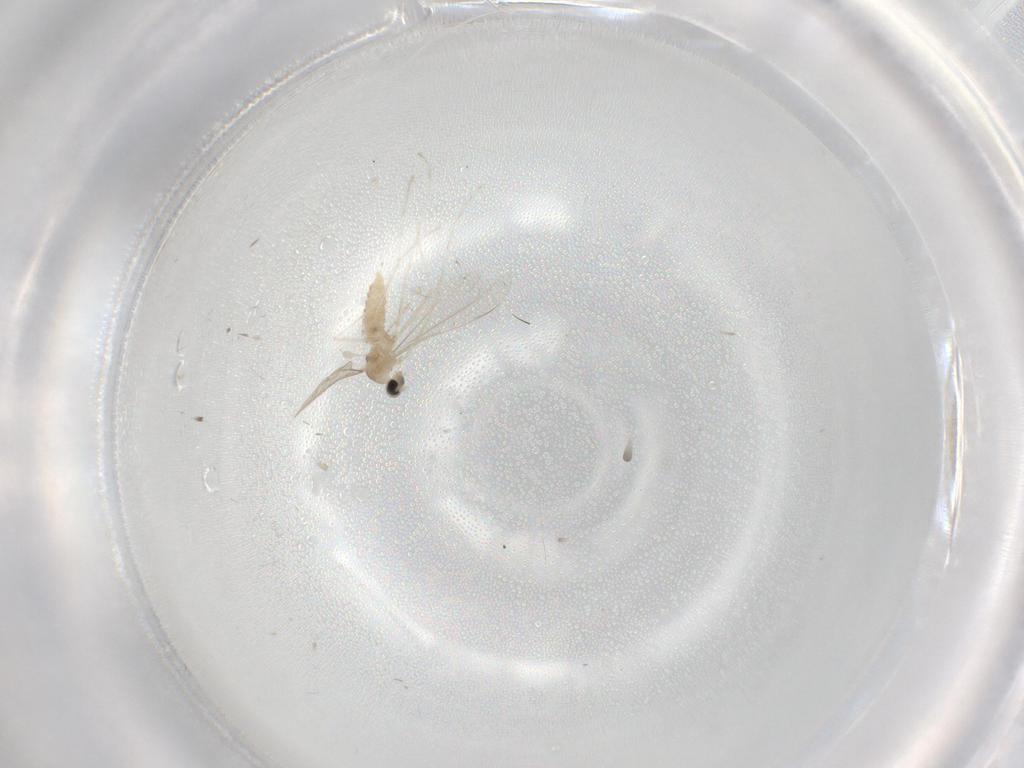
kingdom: Animalia
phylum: Arthropoda
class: Insecta
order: Diptera
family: Cecidomyiidae
